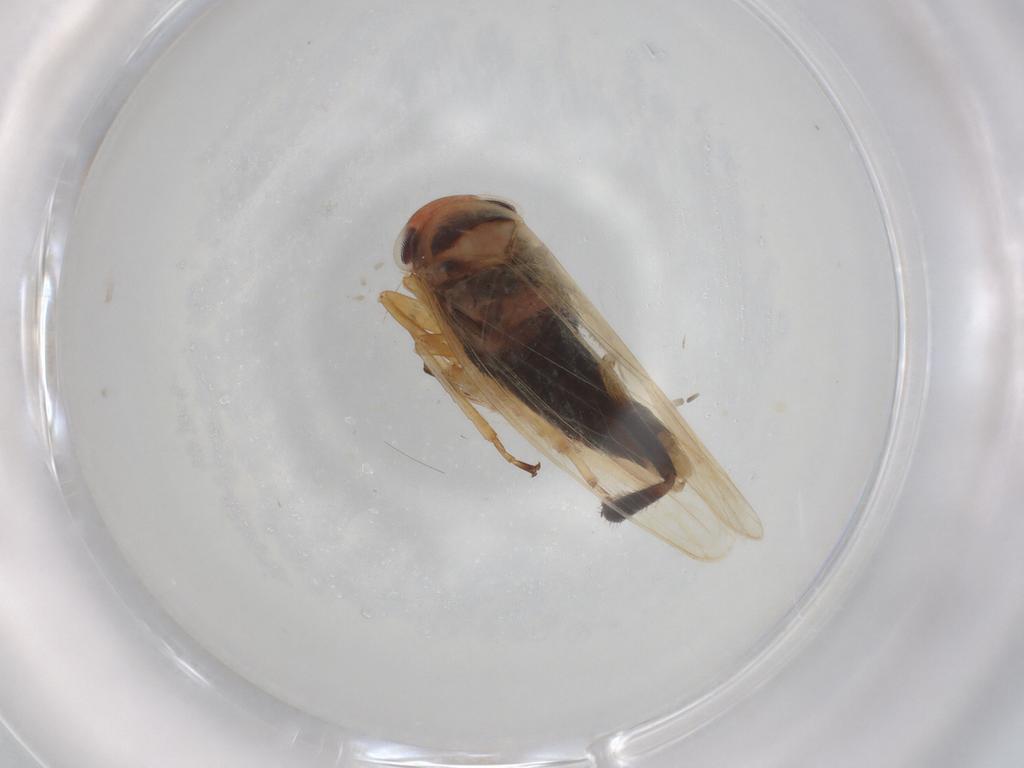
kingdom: Animalia
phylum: Arthropoda
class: Insecta
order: Hemiptera
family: Cicadellidae
